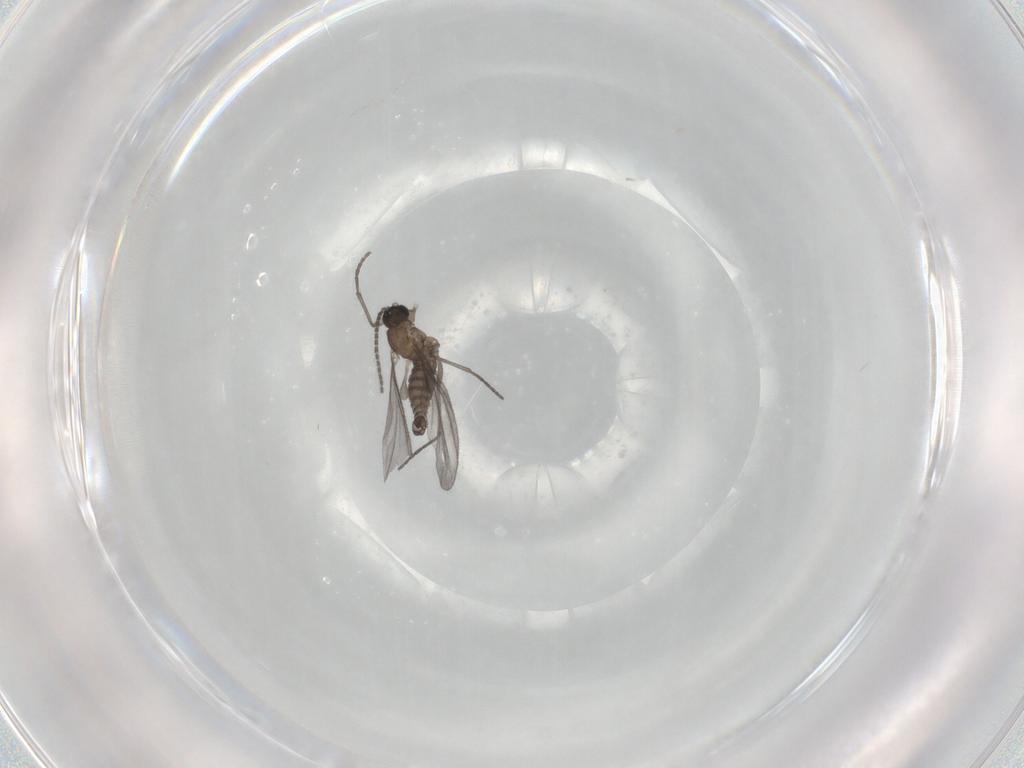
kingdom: Animalia
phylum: Arthropoda
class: Insecta
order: Diptera
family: Sciaridae
